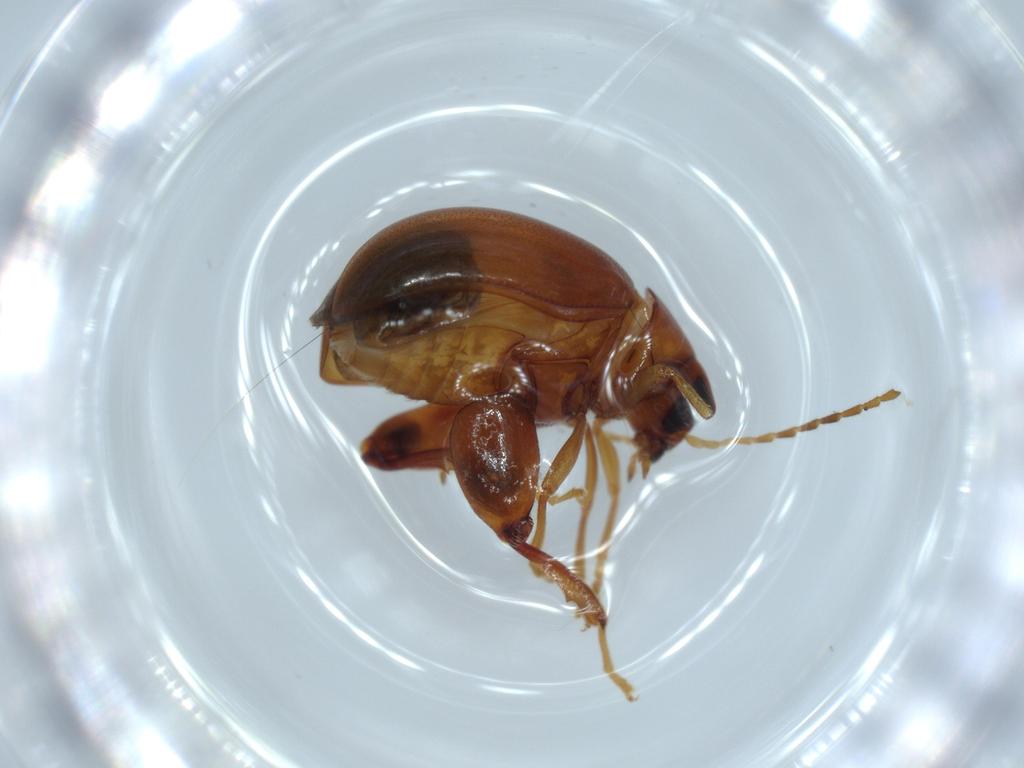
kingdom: Animalia
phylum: Arthropoda
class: Insecta
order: Coleoptera
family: Chrysomelidae
